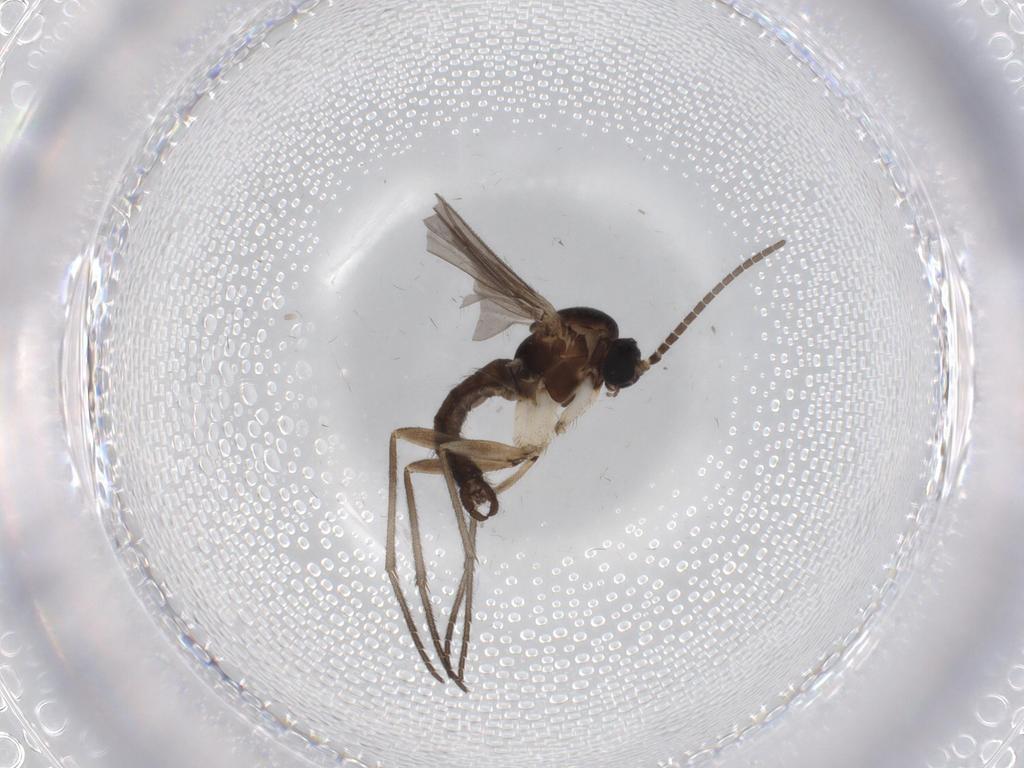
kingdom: Animalia
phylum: Arthropoda
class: Insecta
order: Diptera
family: Sciaridae
